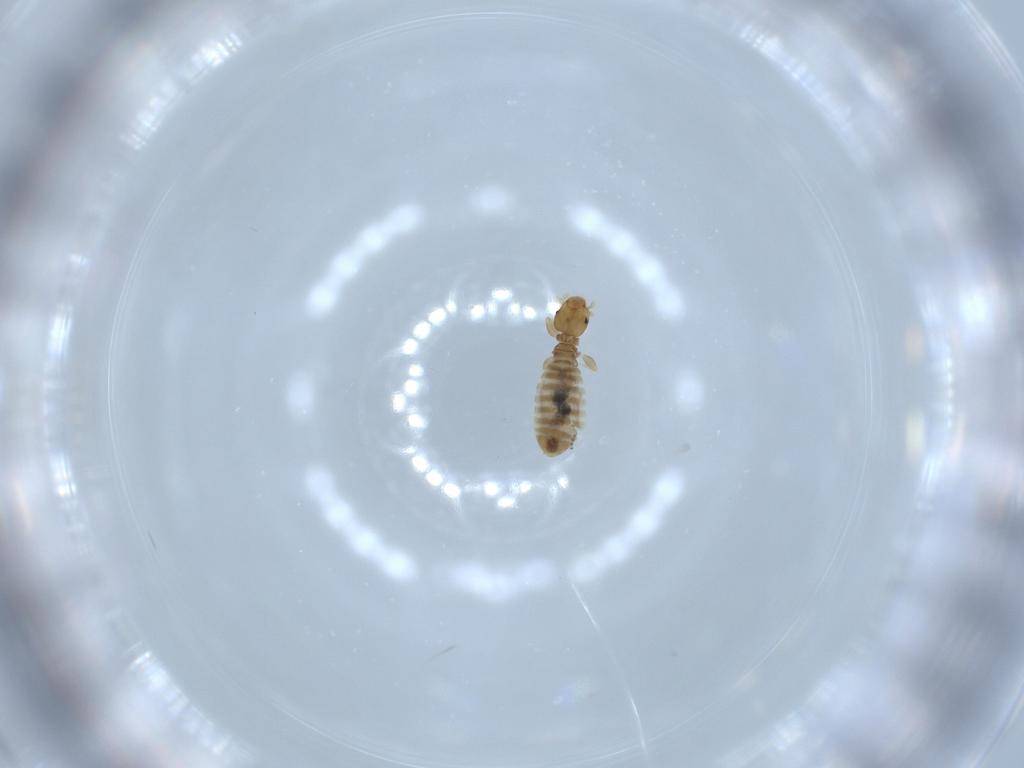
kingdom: Animalia
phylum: Arthropoda
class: Insecta
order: Psocodea
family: Liposcelididae
